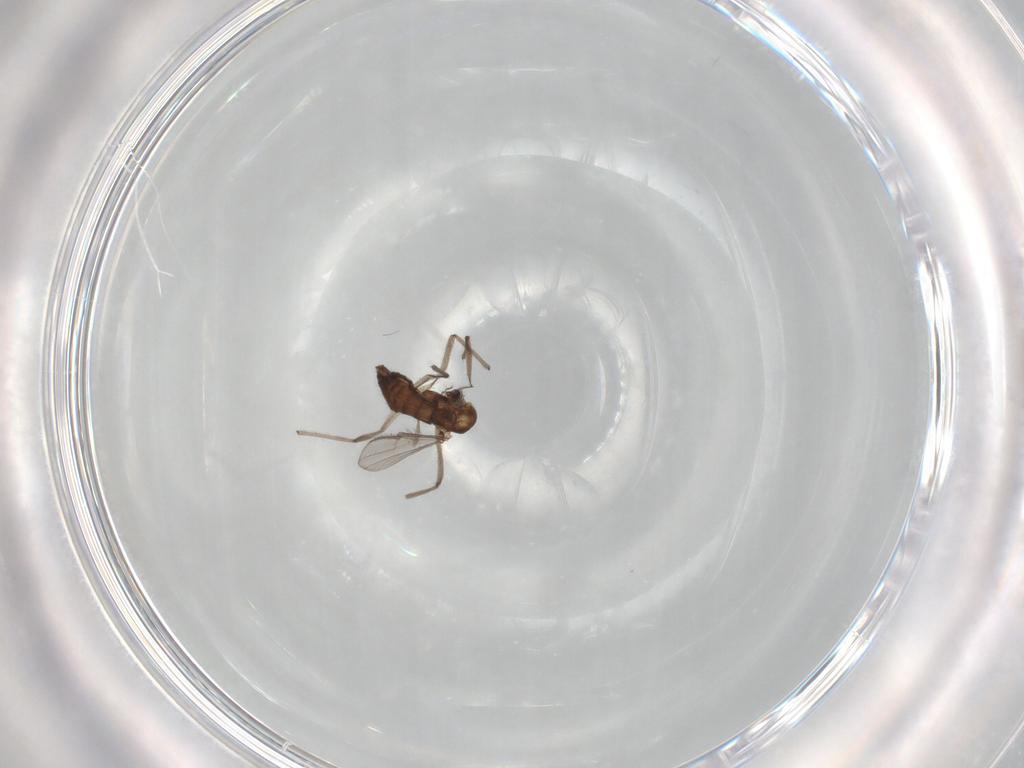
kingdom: Animalia
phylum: Arthropoda
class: Insecta
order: Diptera
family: Chironomidae
